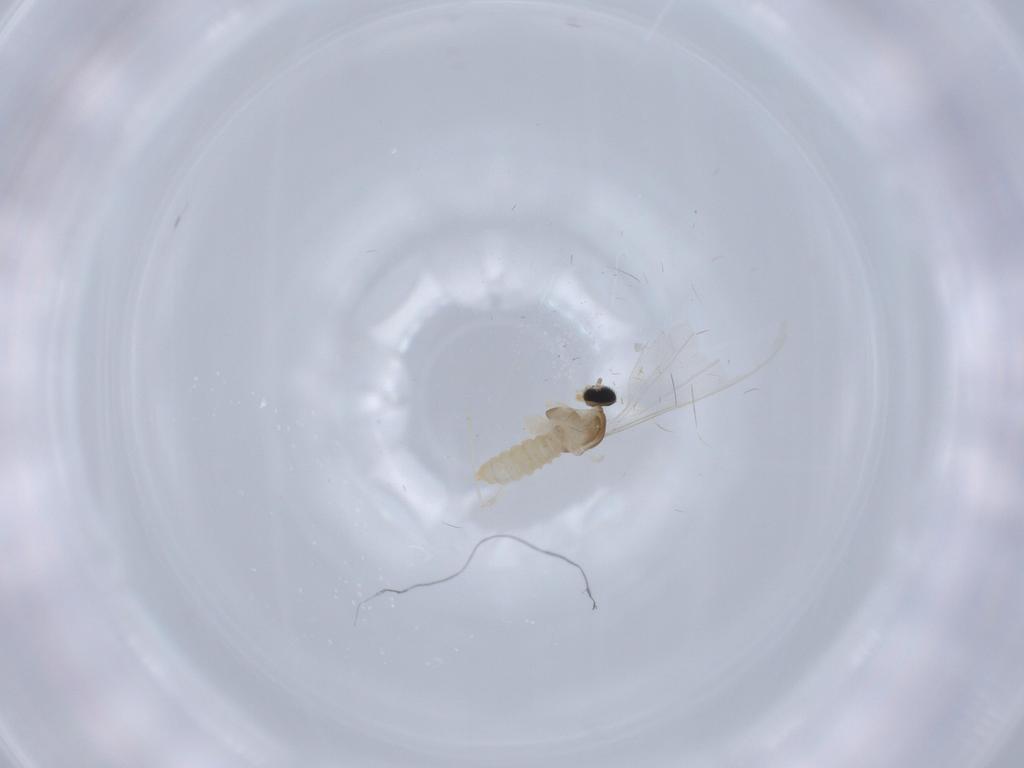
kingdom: Animalia
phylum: Arthropoda
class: Insecta
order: Diptera
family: Cecidomyiidae
